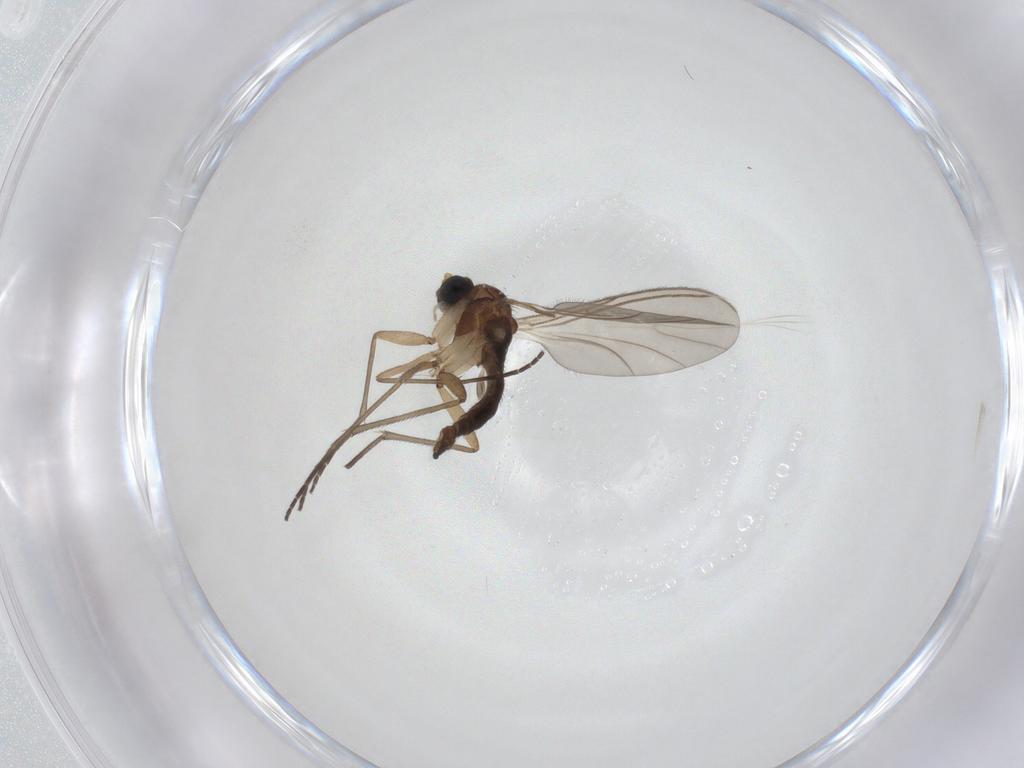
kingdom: Animalia
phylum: Arthropoda
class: Insecta
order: Diptera
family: Sciaridae
